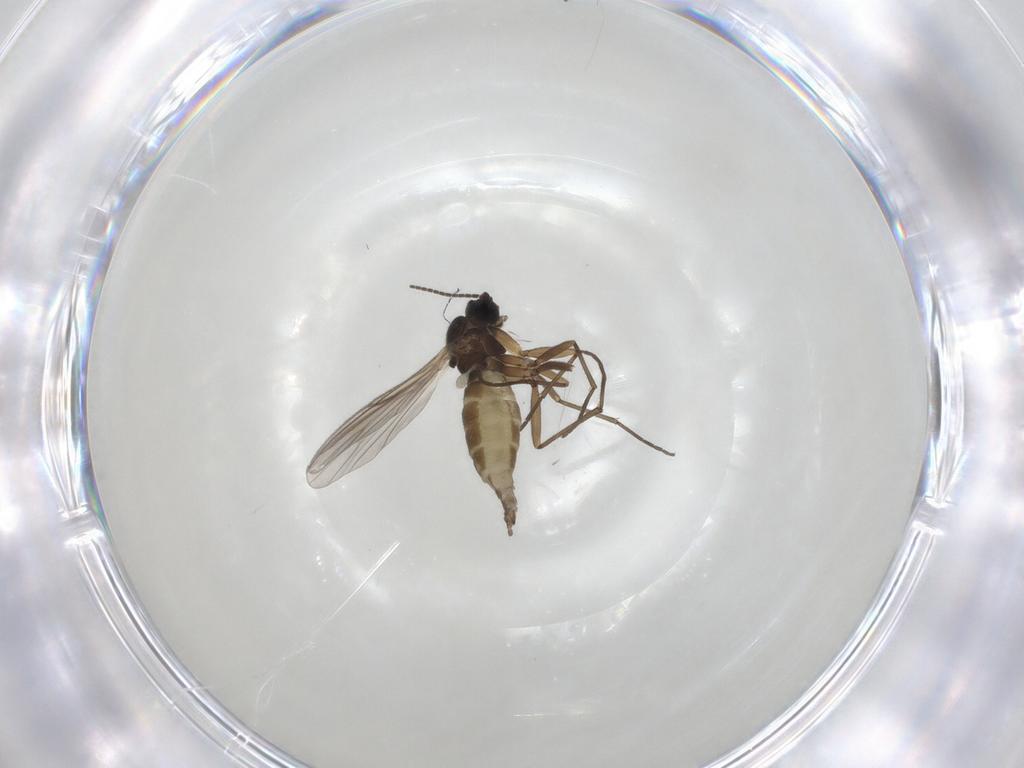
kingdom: Animalia
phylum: Arthropoda
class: Insecta
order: Diptera
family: Sciaridae
